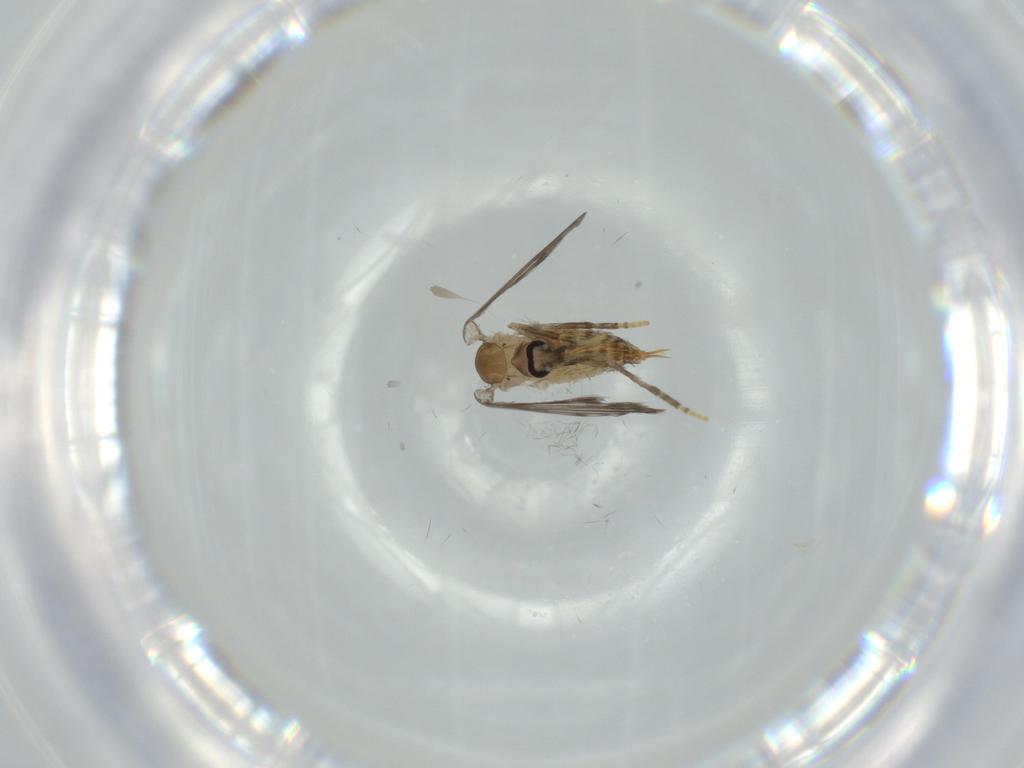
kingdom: Animalia
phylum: Arthropoda
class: Insecta
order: Diptera
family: Psychodidae
